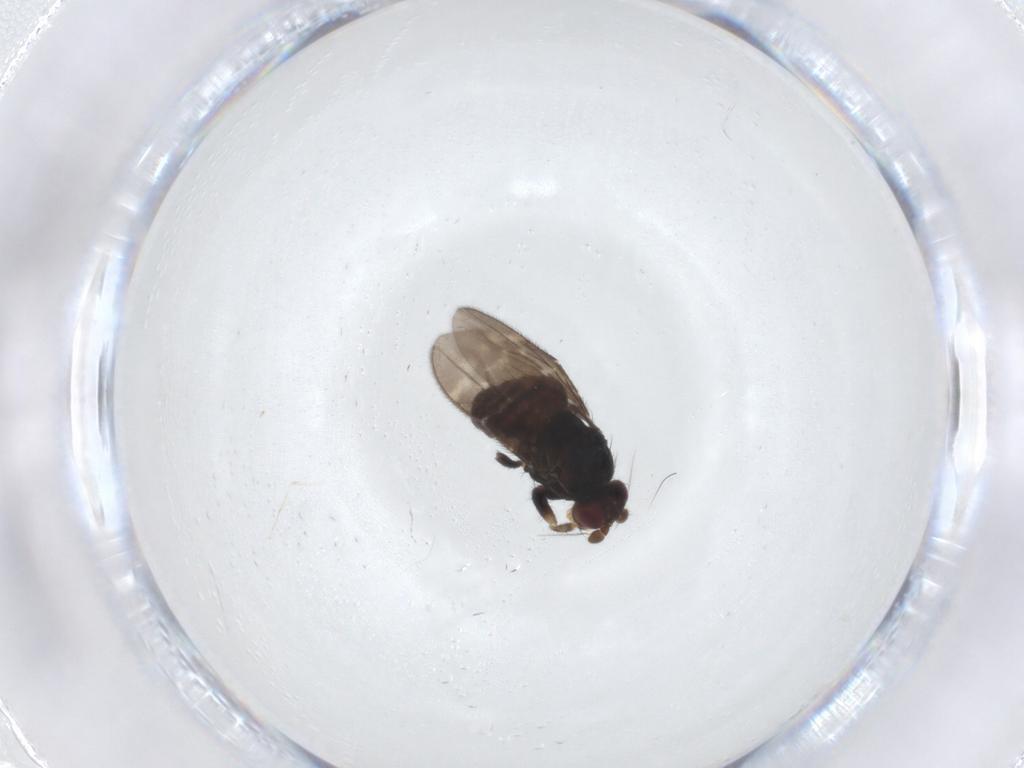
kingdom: Animalia
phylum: Arthropoda
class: Insecta
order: Diptera
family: Sphaeroceridae
